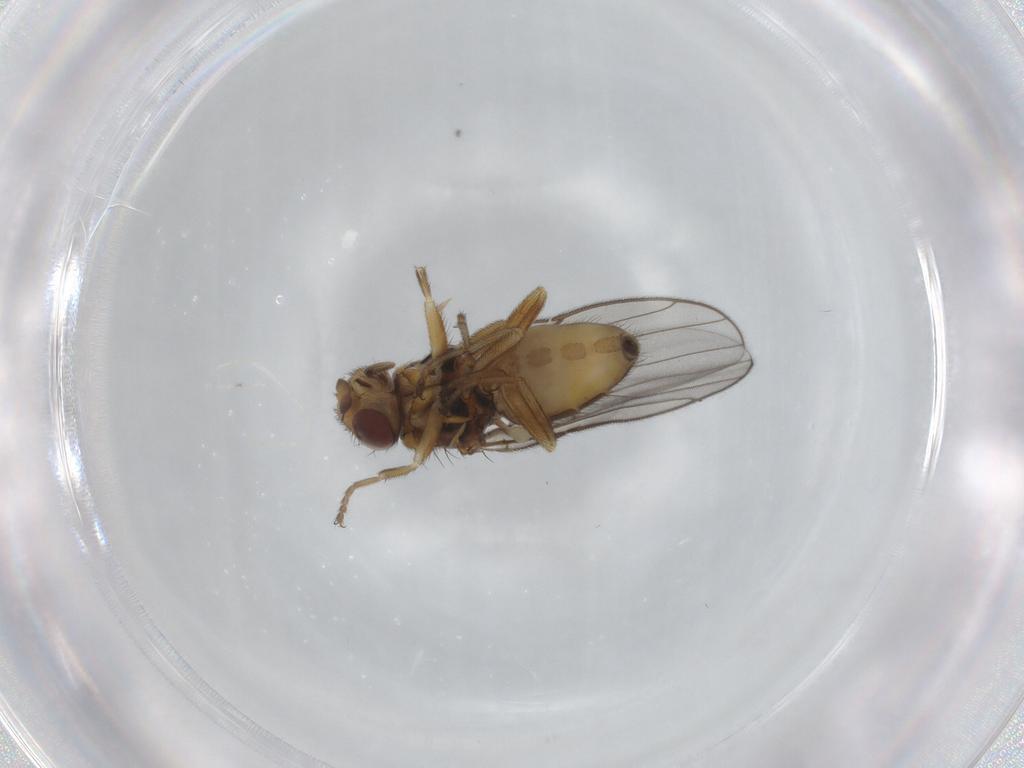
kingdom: Animalia
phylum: Arthropoda
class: Insecta
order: Diptera
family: Chloropidae
